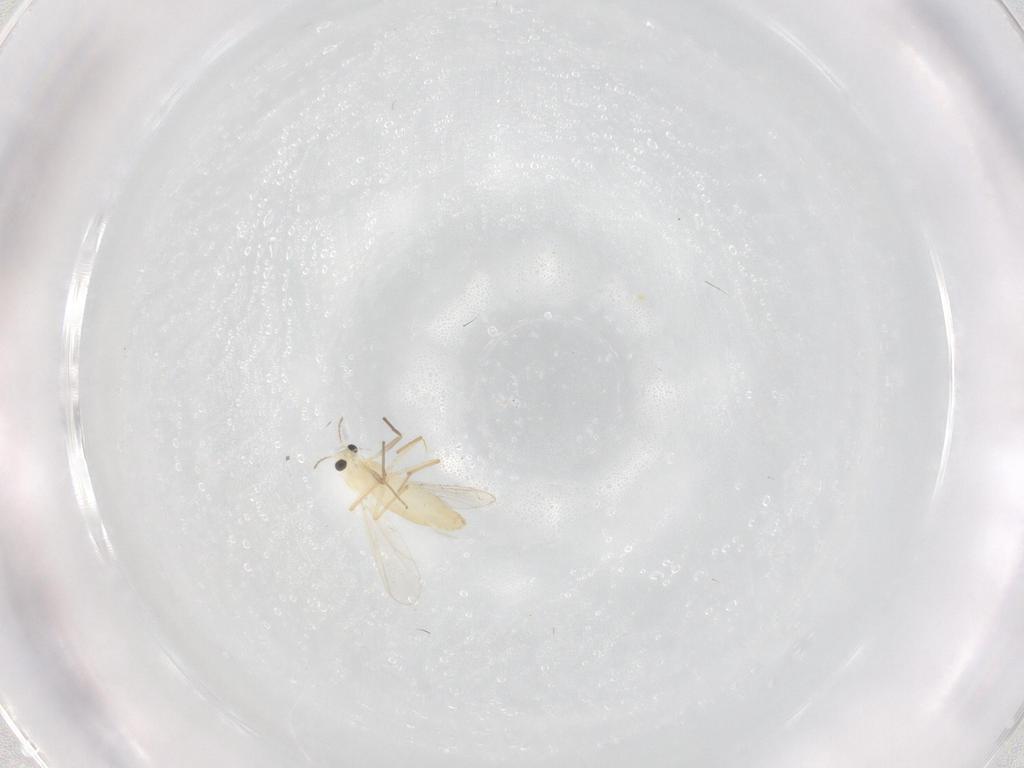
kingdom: Animalia
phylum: Arthropoda
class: Insecta
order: Diptera
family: Chironomidae
